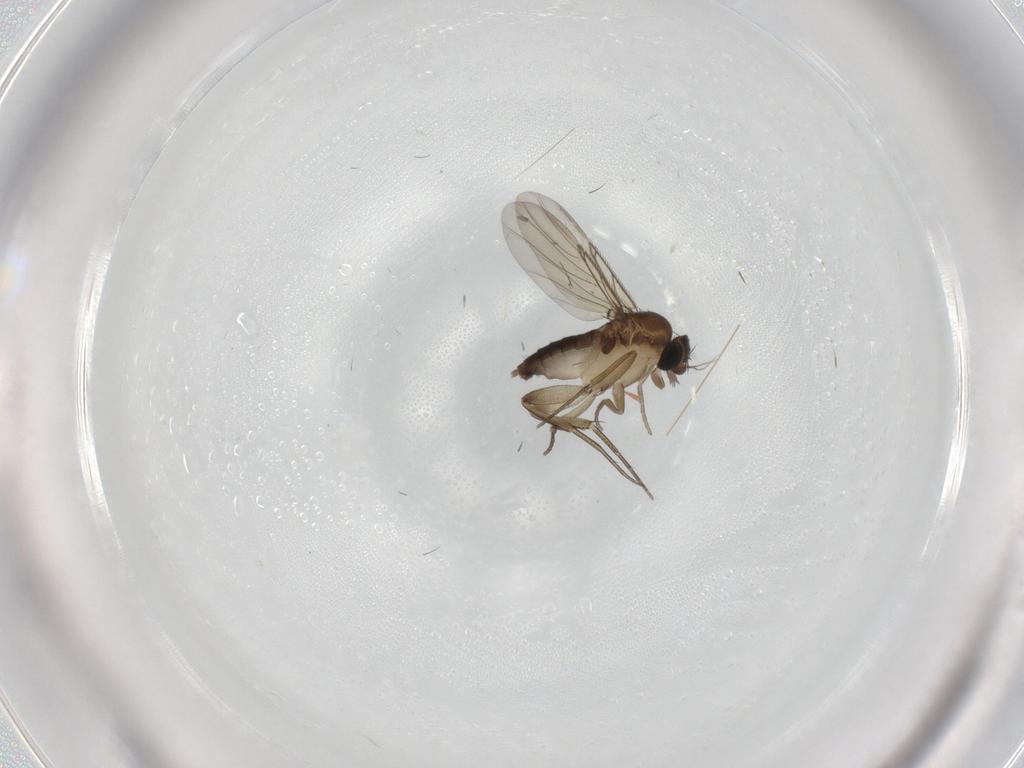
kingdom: Animalia
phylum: Arthropoda
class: Insecta
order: Diptera
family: Phoridae
